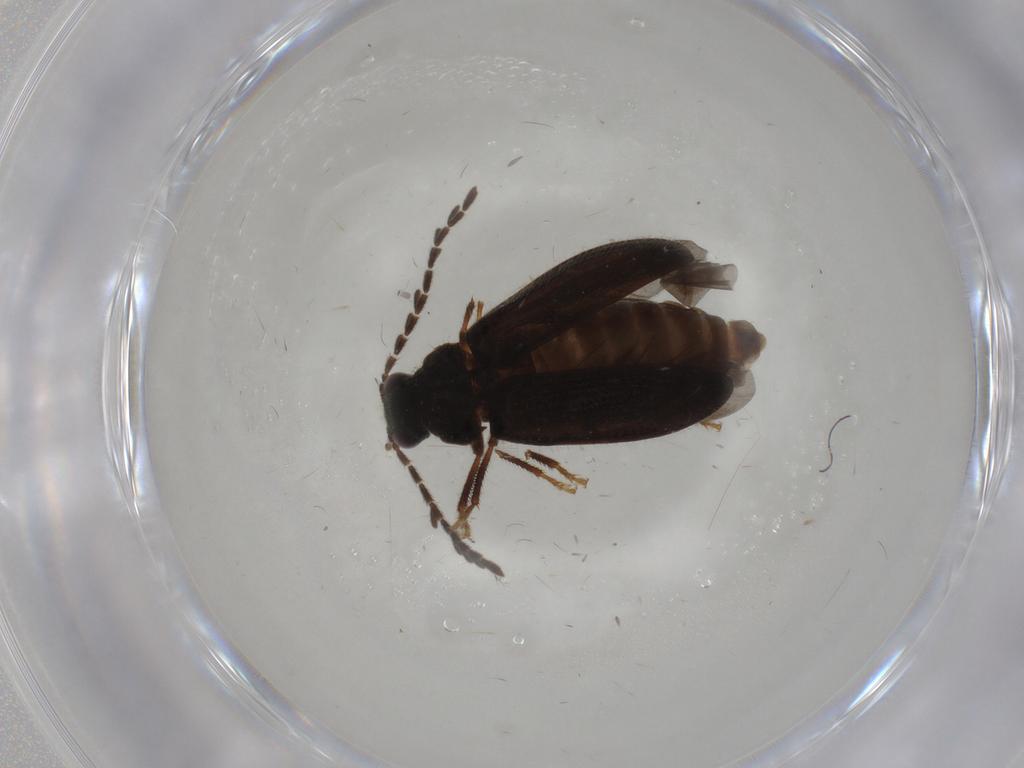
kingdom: Animalia
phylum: Arthropoda
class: Insecta
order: Coleoptera
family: Ptilodactylidae
